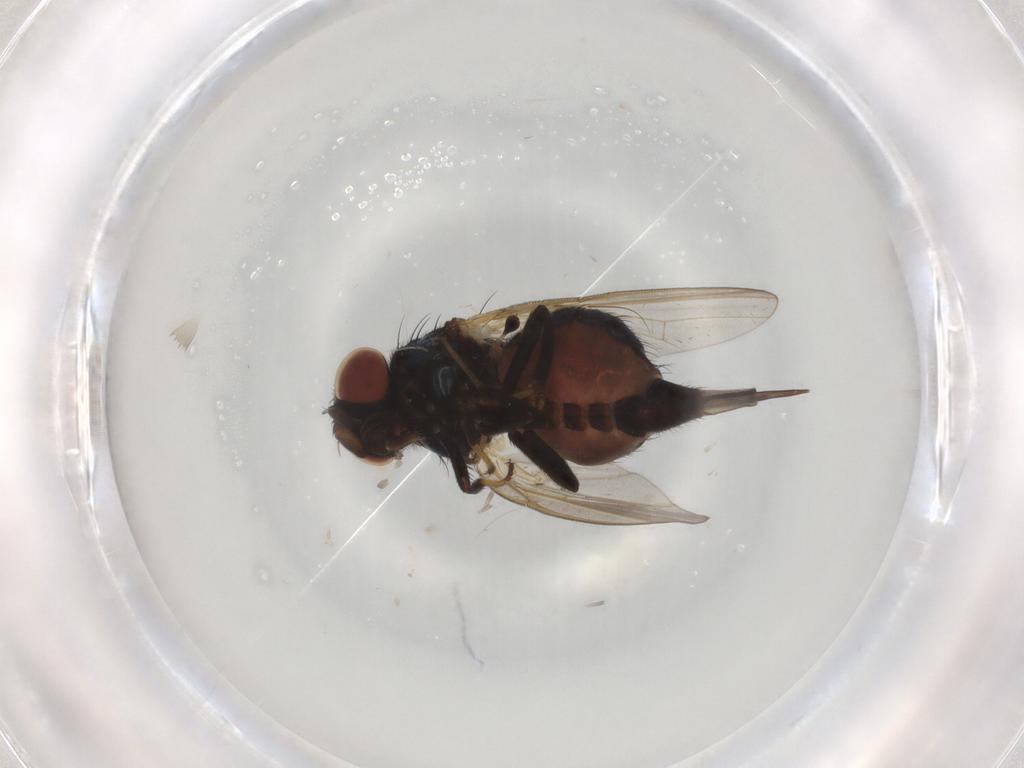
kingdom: Animalia
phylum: Arthropoda
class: Insecta
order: Diptera
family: Lonchaeidae
